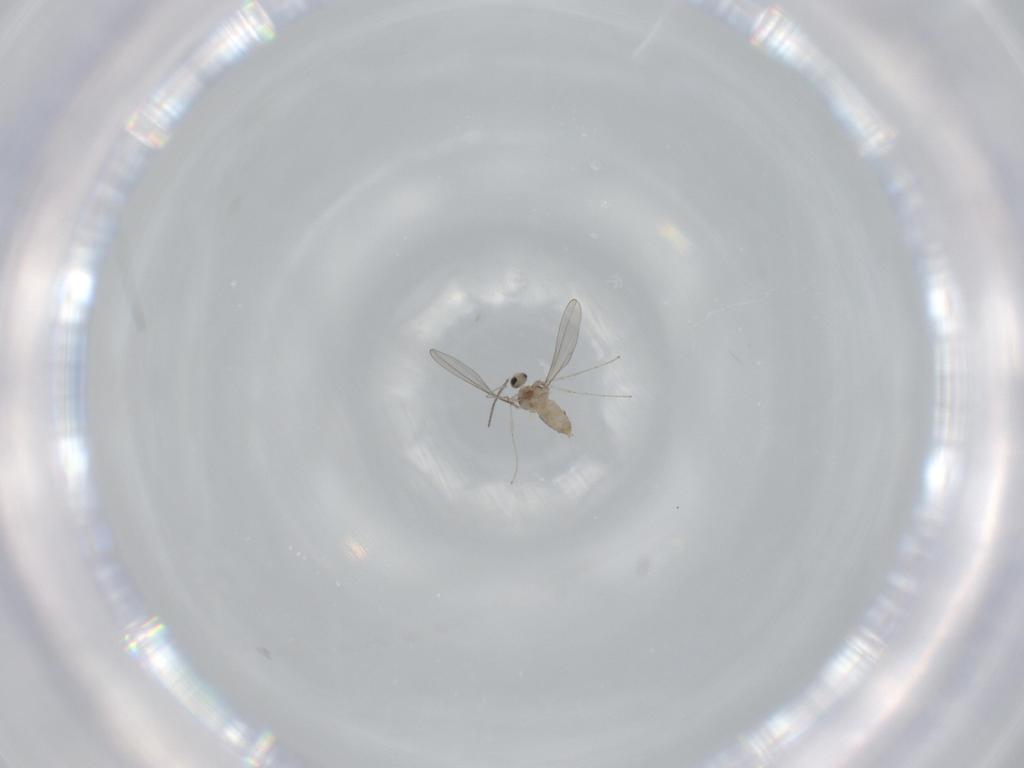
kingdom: Animalia
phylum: Arthropoda
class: Insecta
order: Diptera
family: Cecidomyiidae
